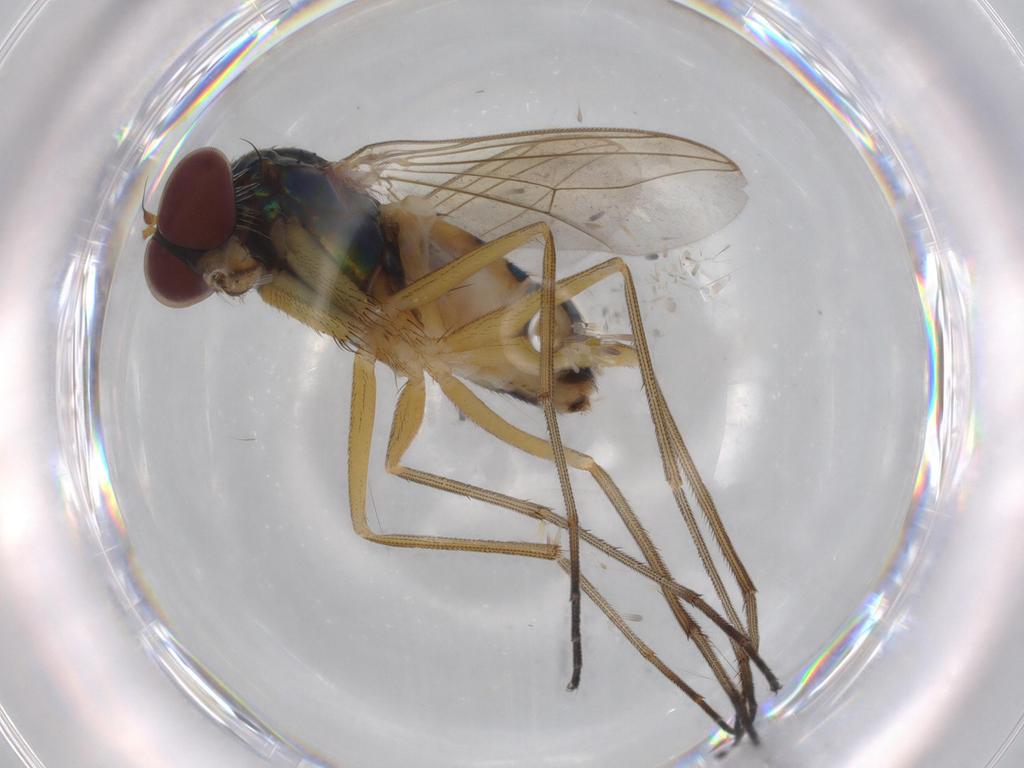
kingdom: Animalia
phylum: Arthropoda
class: Insecta
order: Diptera
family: Dolichopodidae
